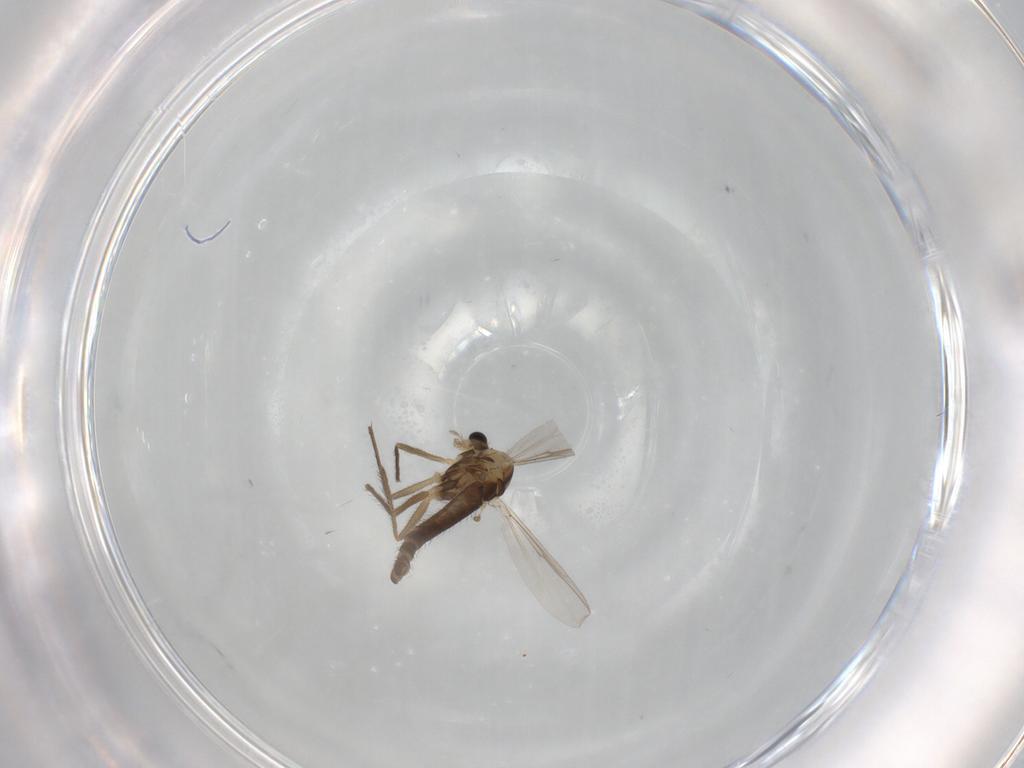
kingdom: Animalia
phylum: Arthropoda
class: Insecta
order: Diptera
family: Chironomidae
